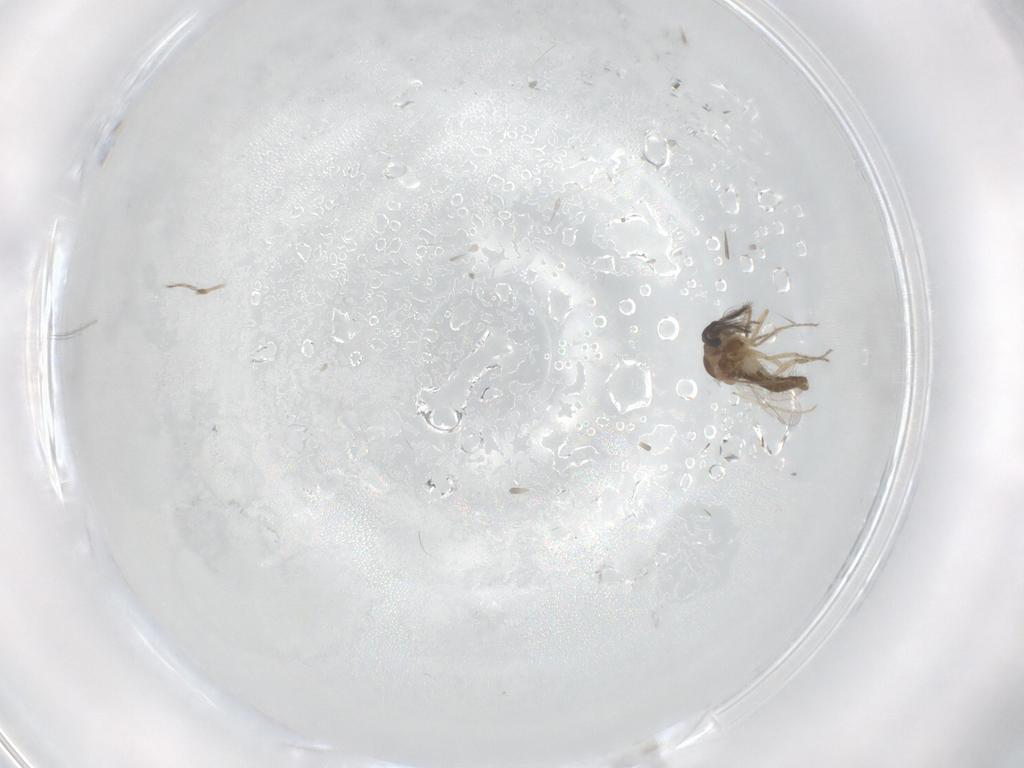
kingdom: Animalia
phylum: Arthropoda
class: Insecta
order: Diptera
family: Ceratopogonidae
